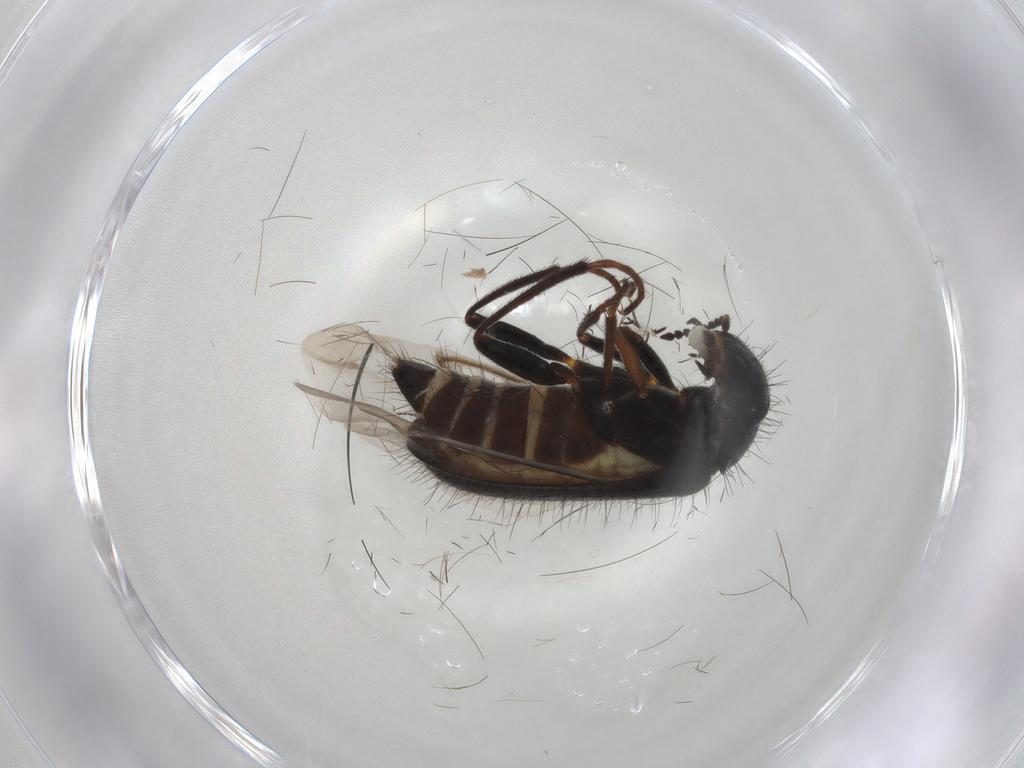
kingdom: Animalia
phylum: Arthropoda
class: Insecta
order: Coleoptera
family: Melyridae
